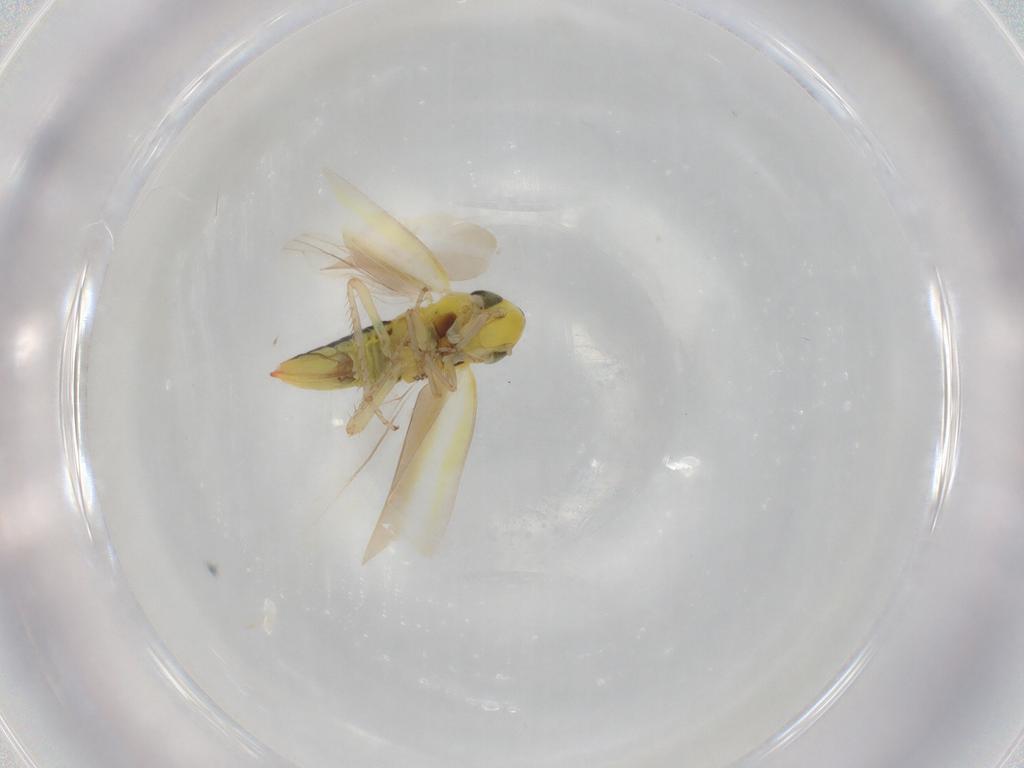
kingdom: Animalia
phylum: Arthropoda
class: Insecta
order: Hemiptera
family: Cicadellidae
